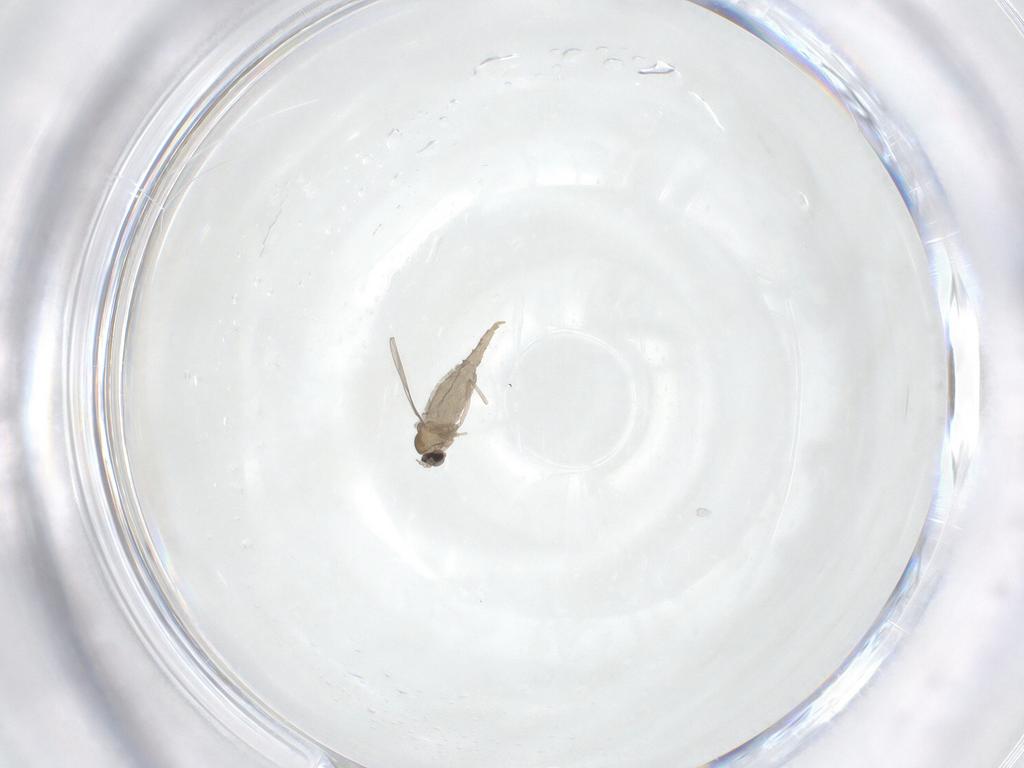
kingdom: Animalia
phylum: Arthropoda
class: Insecta
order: Diptera
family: Cecidomyiidae
